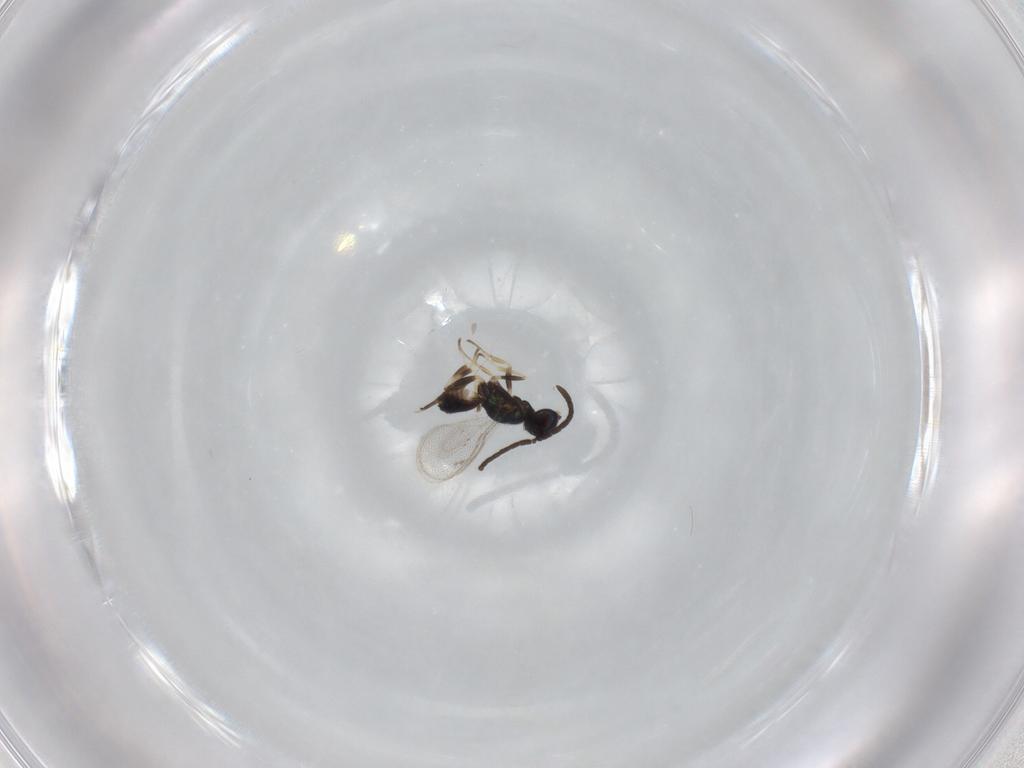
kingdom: Animalia
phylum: Arthropoda
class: Insecta
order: Hymenoptera
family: Eupelmidae
